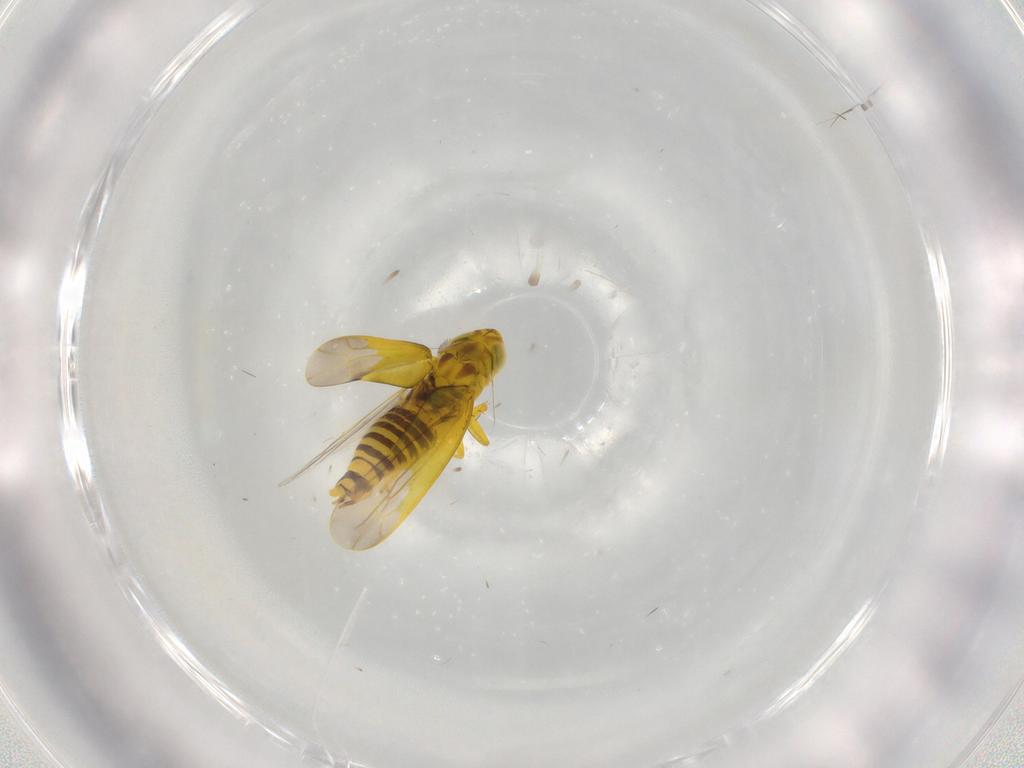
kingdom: Animalia
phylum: Arthropoda
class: Insecta
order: Hemiptera
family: Cicadellidae
